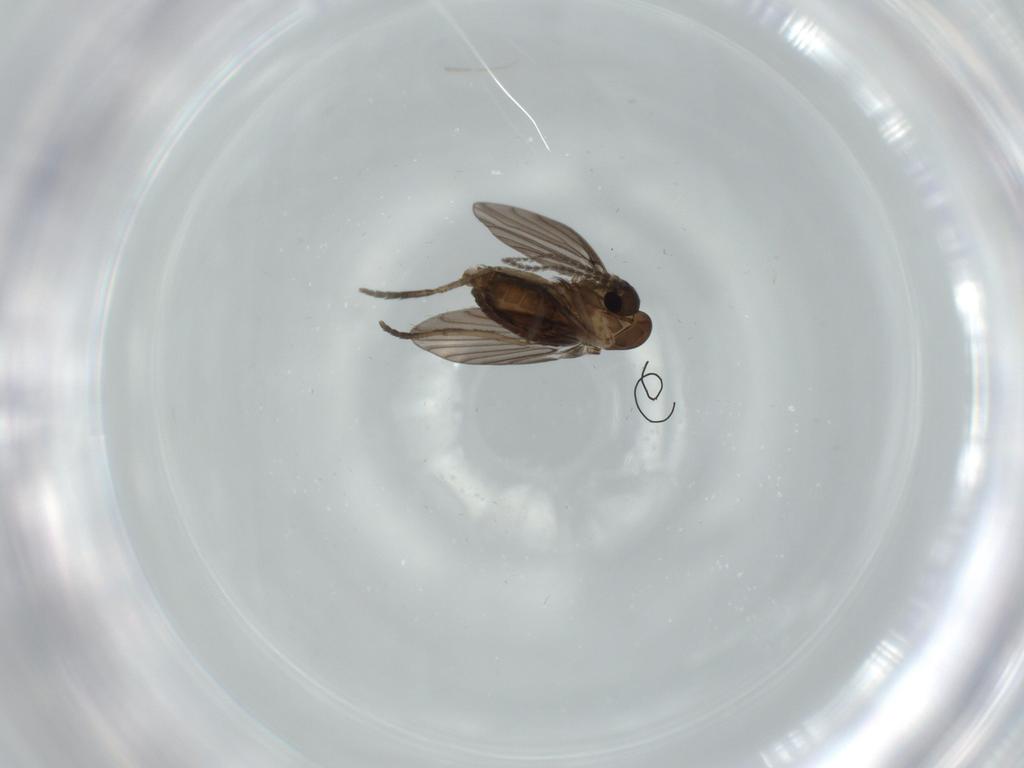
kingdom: Animalia
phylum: Arthropoda
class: Insecta
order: Diptera
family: Psychodidae
